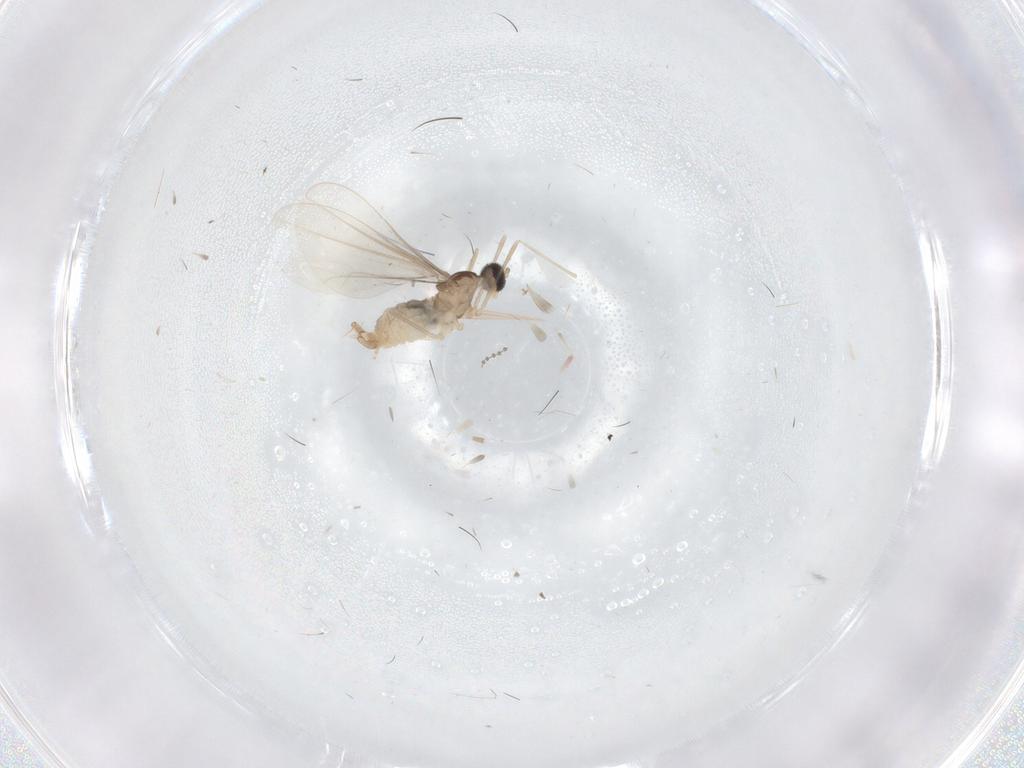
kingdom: Animalia
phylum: Arthropoda
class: Insecta
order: Diptera
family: Cecidomyiidae
